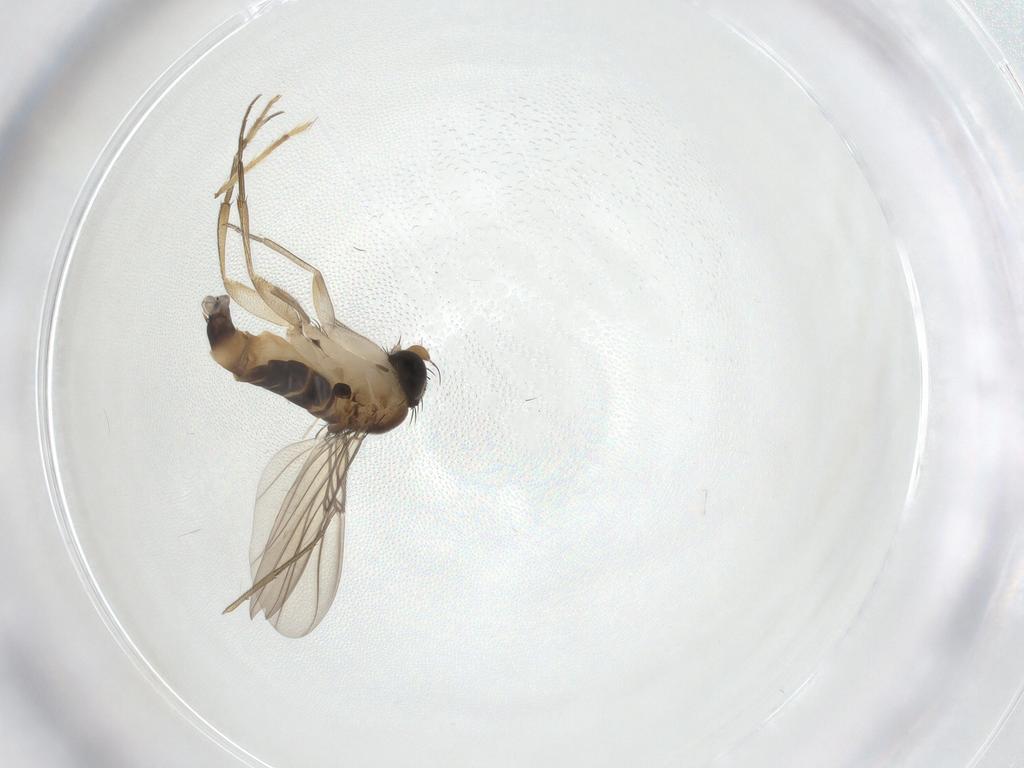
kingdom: Animalia
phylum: Arthropoda
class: Insecta
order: Diptera
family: Phoridae
